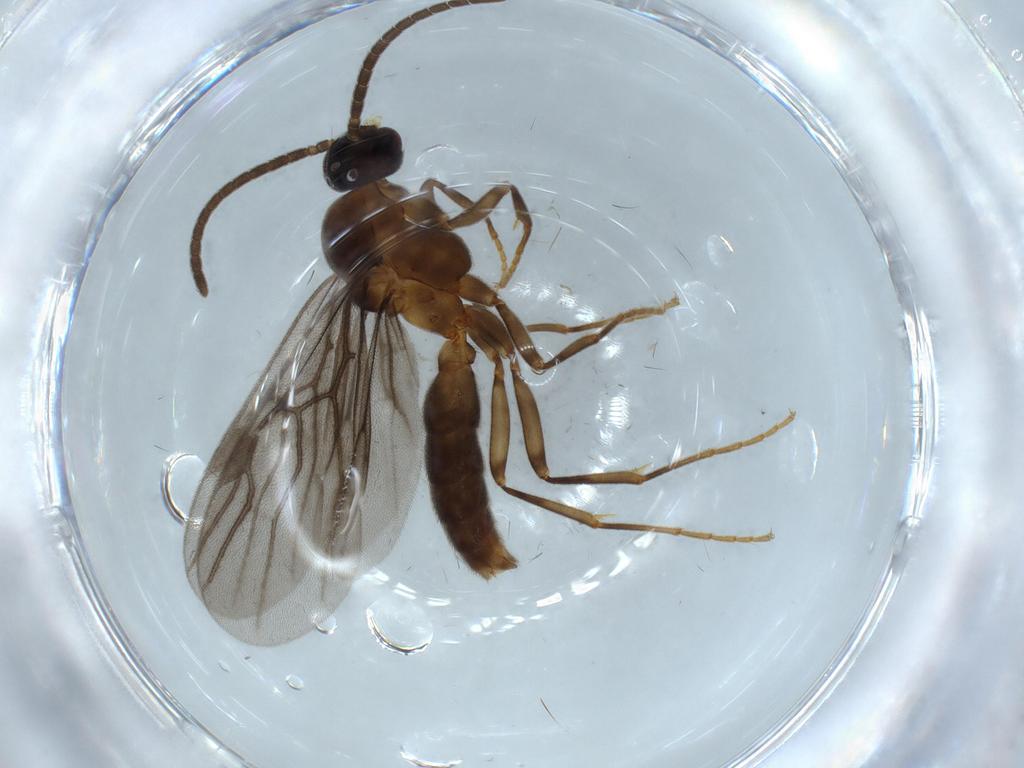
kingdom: Animalia
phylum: Arthropoda
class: Insecta
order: Hymenoptera
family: Formicidae
